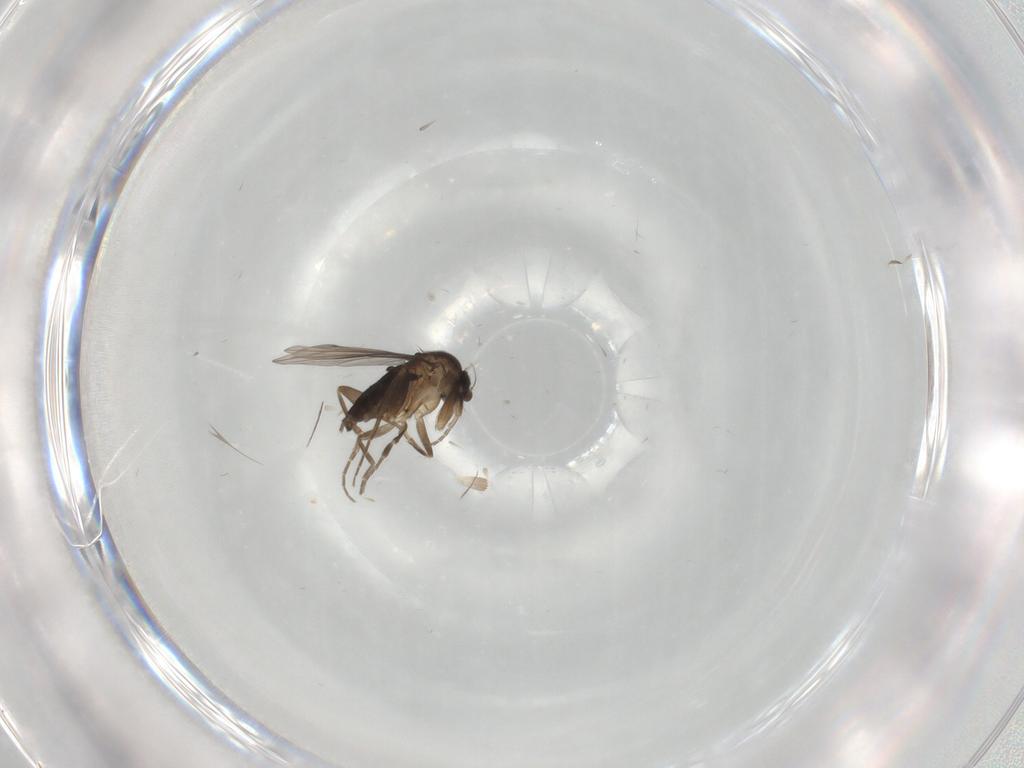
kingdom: Animalia
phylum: Arthropoda
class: Insecta
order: Diptera
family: Phoridae
